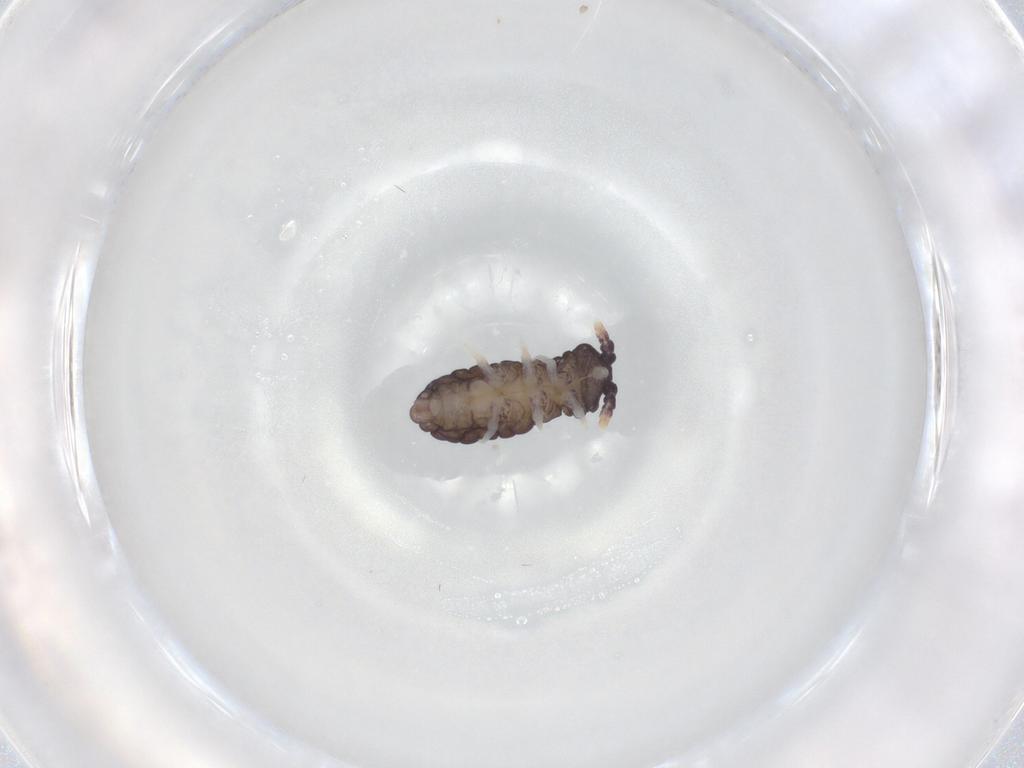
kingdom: Animalia
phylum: Arthropoda
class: Collembola
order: Poduromorpha
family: Neanuridae
